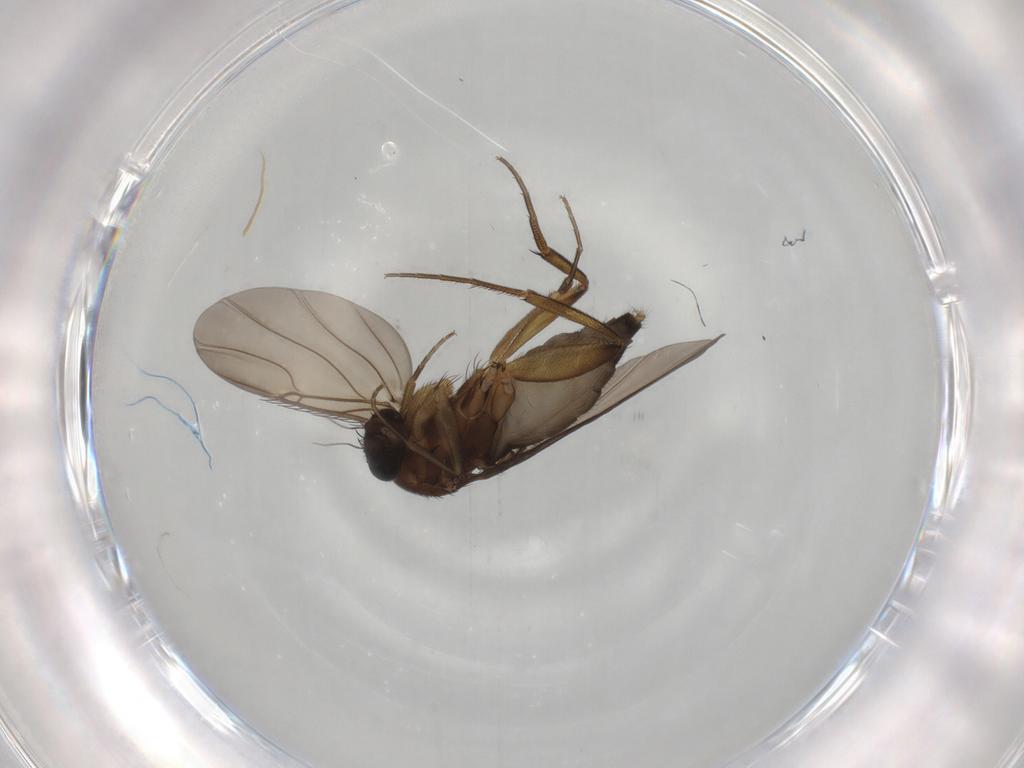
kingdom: Animalia
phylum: Arthropoda
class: Insecta
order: Diptera
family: Phoridae
